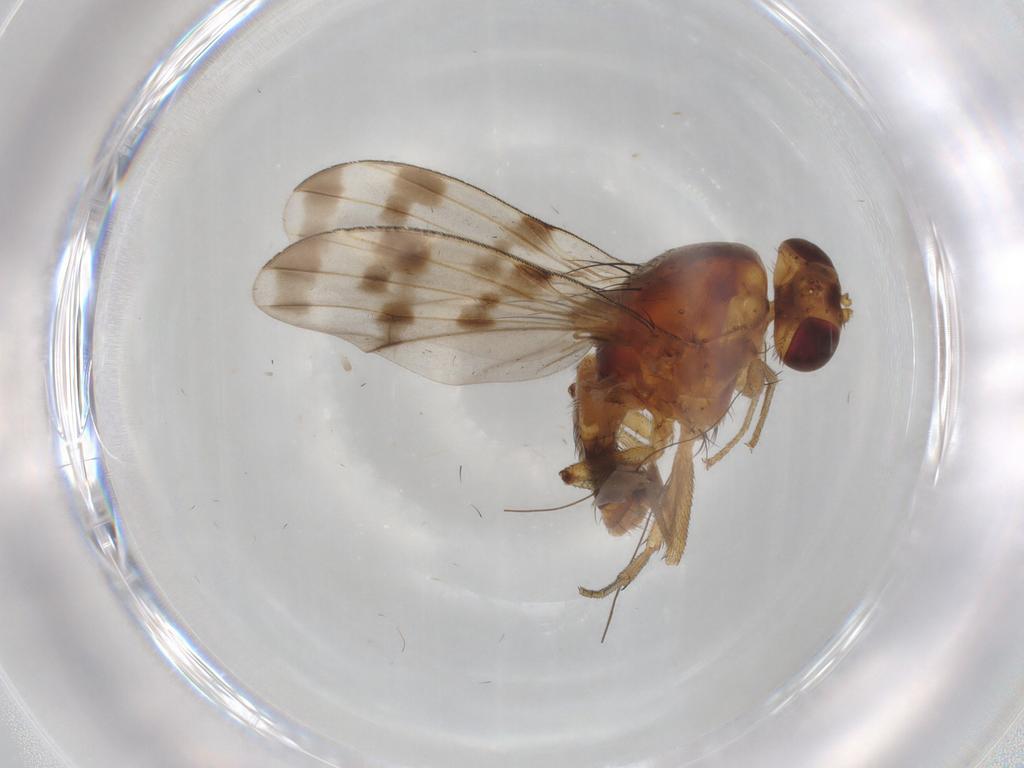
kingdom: Animalia
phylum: Arthropoda
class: Insecta
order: Diptera
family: Lauxaniidae
